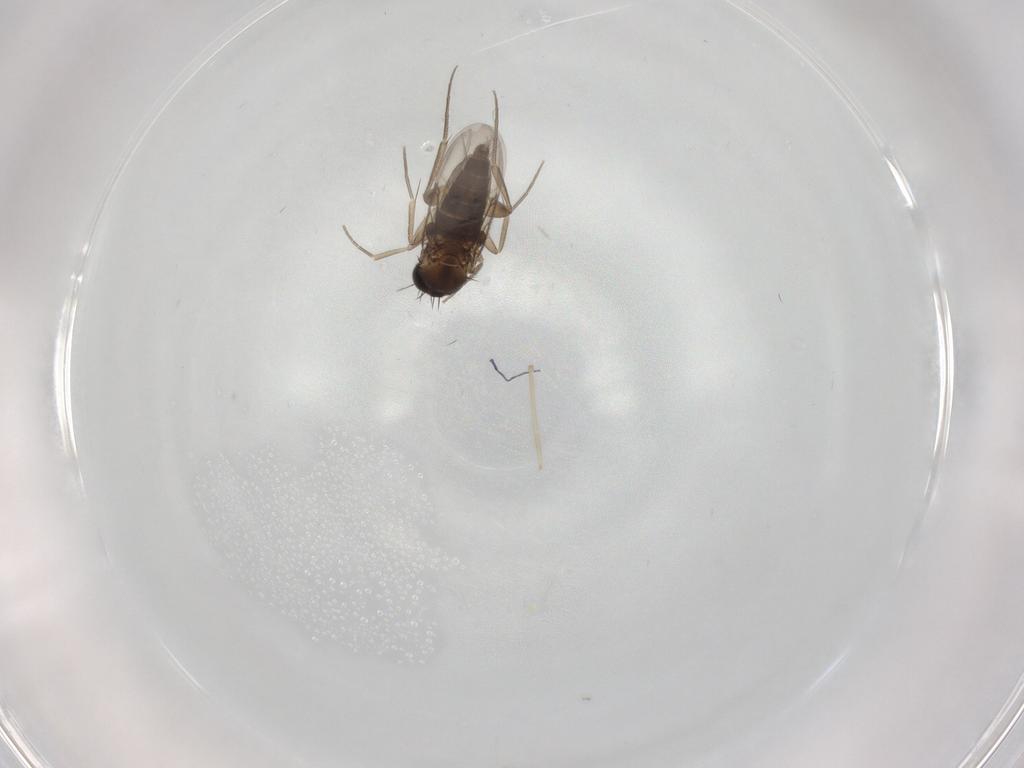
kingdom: Animalia
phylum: Arthropoda
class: Insecta
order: Diptera
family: Phoridae
